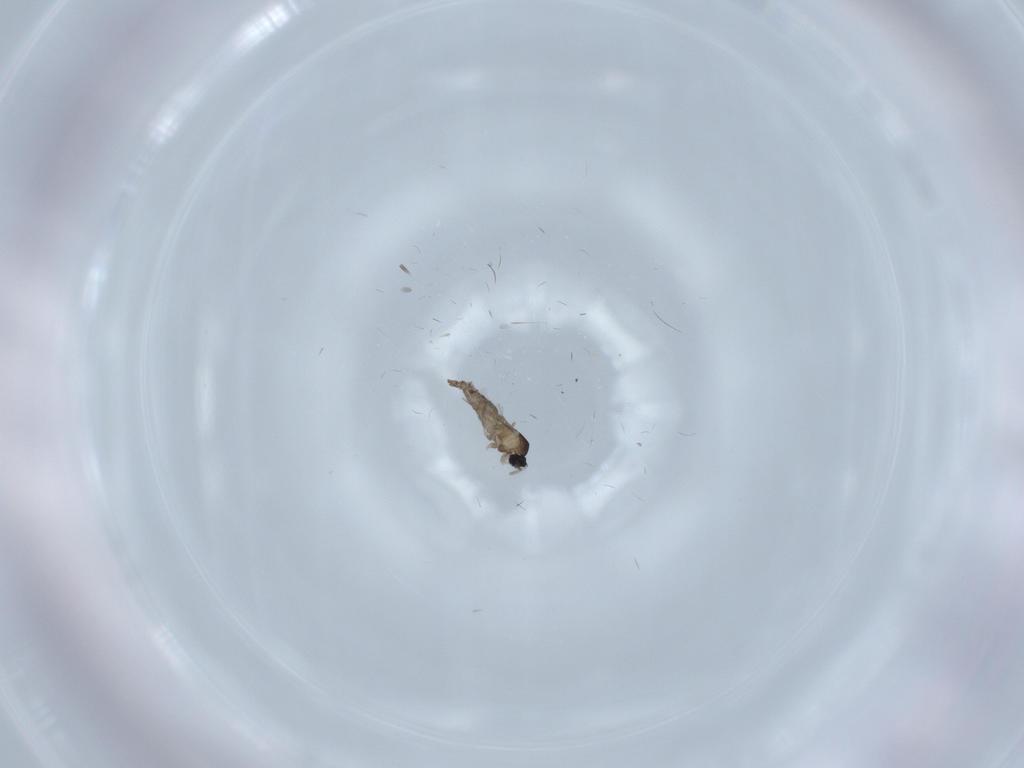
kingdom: Animalia
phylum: Arthropoda
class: Insecta
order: Diptera
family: Cecidomyiidae
